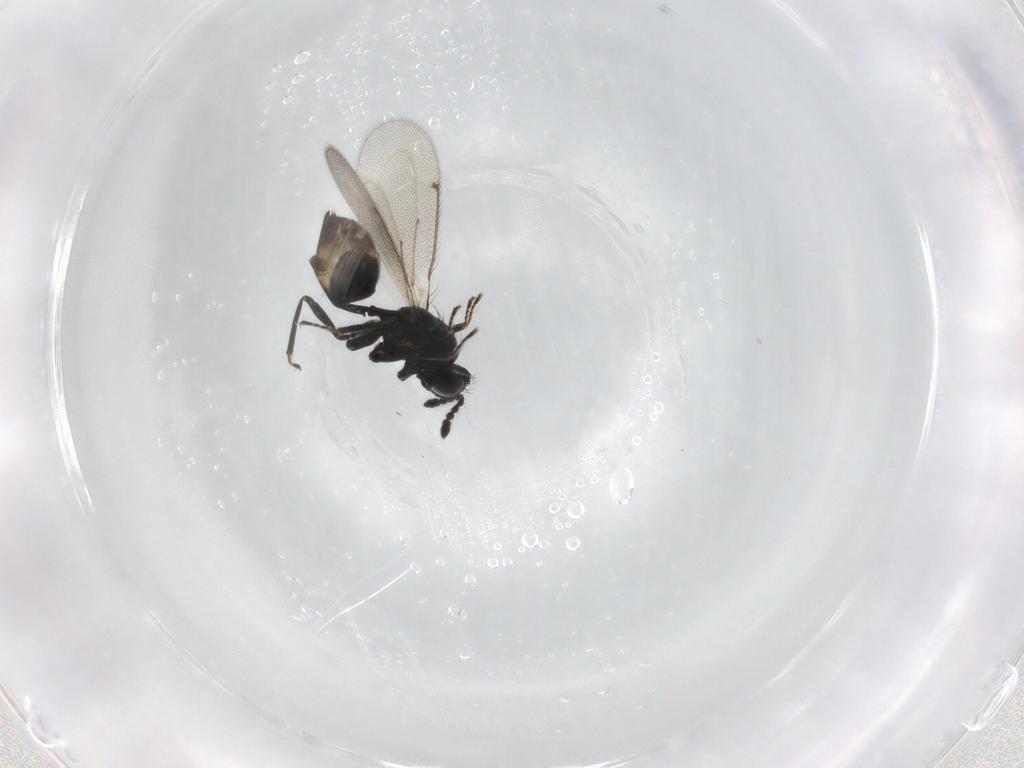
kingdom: Animalia
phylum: Arthropoda
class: Insecta
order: Hymenoptera
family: Eulophidae
